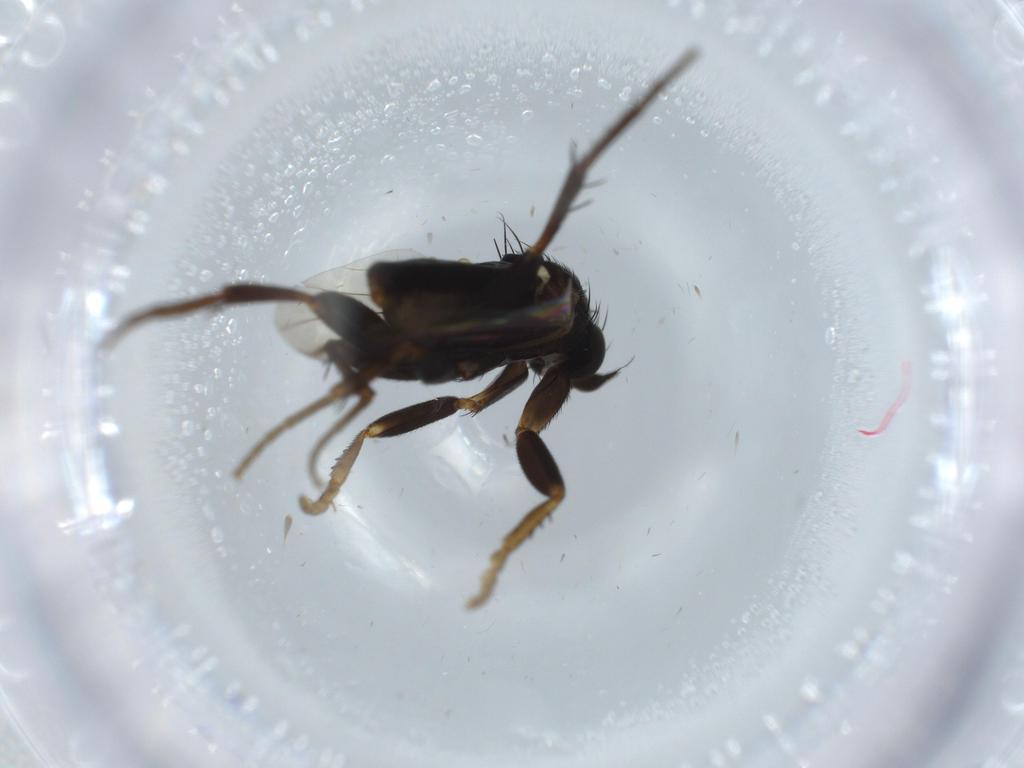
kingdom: Animalia
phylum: Arthropoda
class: Insecta
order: Diptera
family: Phoridae
